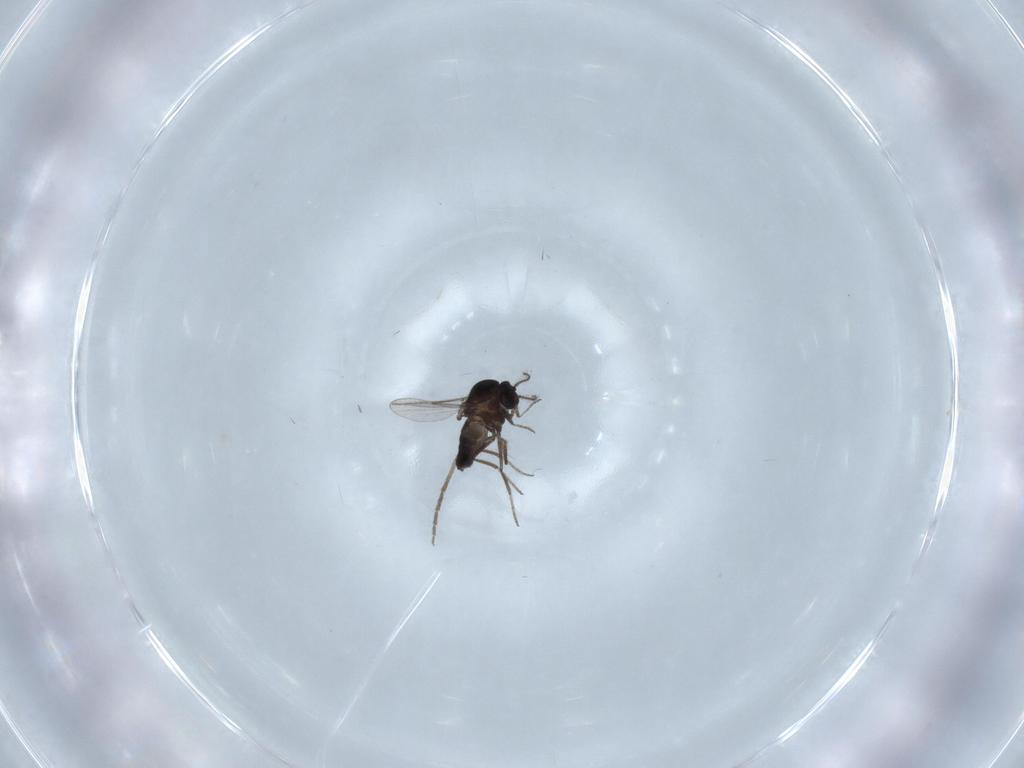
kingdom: Animalia
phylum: Arthropoda
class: Insecta
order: Diptera
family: Ceratopogonidae
